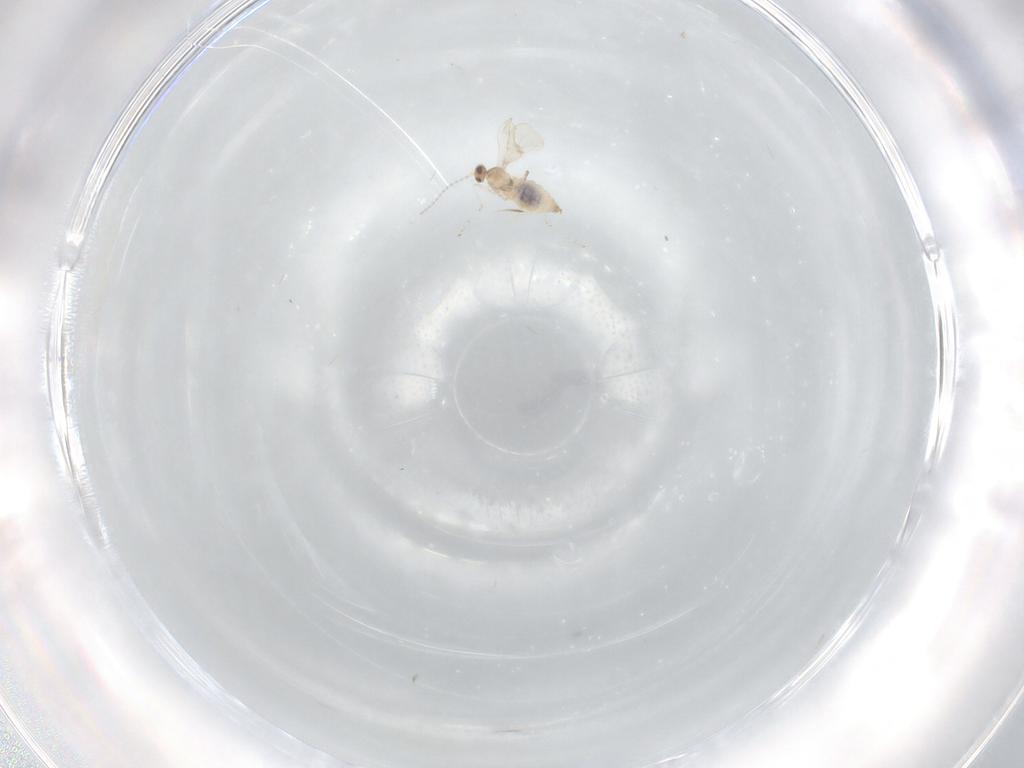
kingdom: Animalia
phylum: Arthropoda
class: Insecta
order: Diptera
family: Cecidomyiidae
